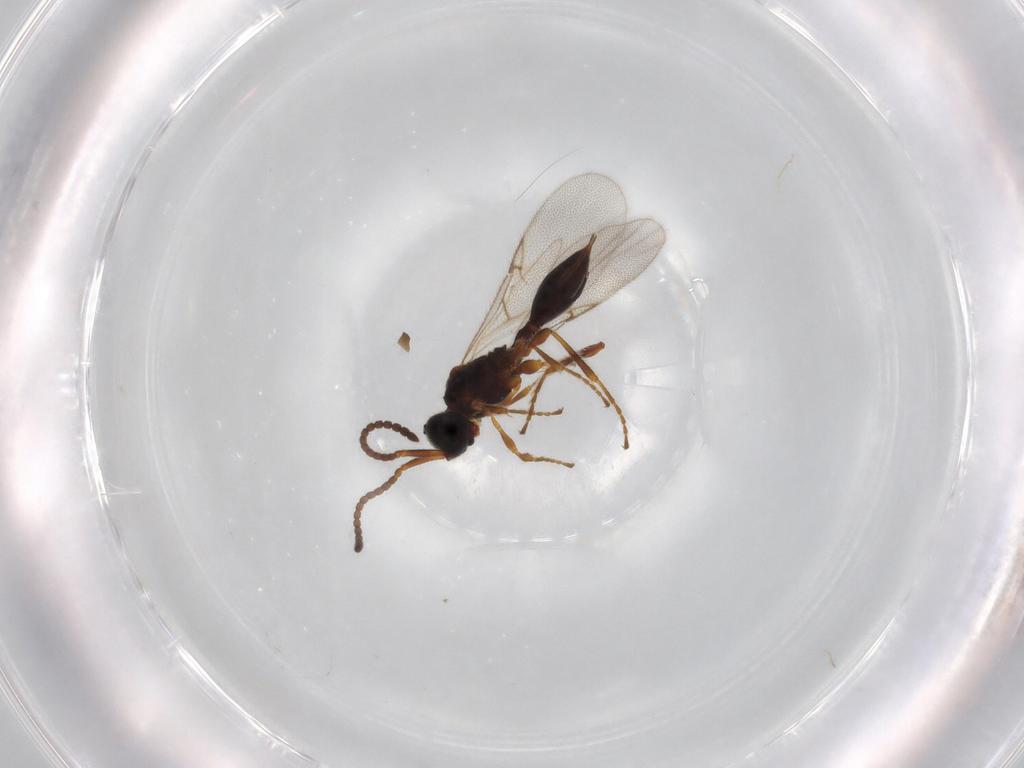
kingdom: Animalia
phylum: Arthropoda
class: Insecta
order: Hymenoptera
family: Diapriidae
